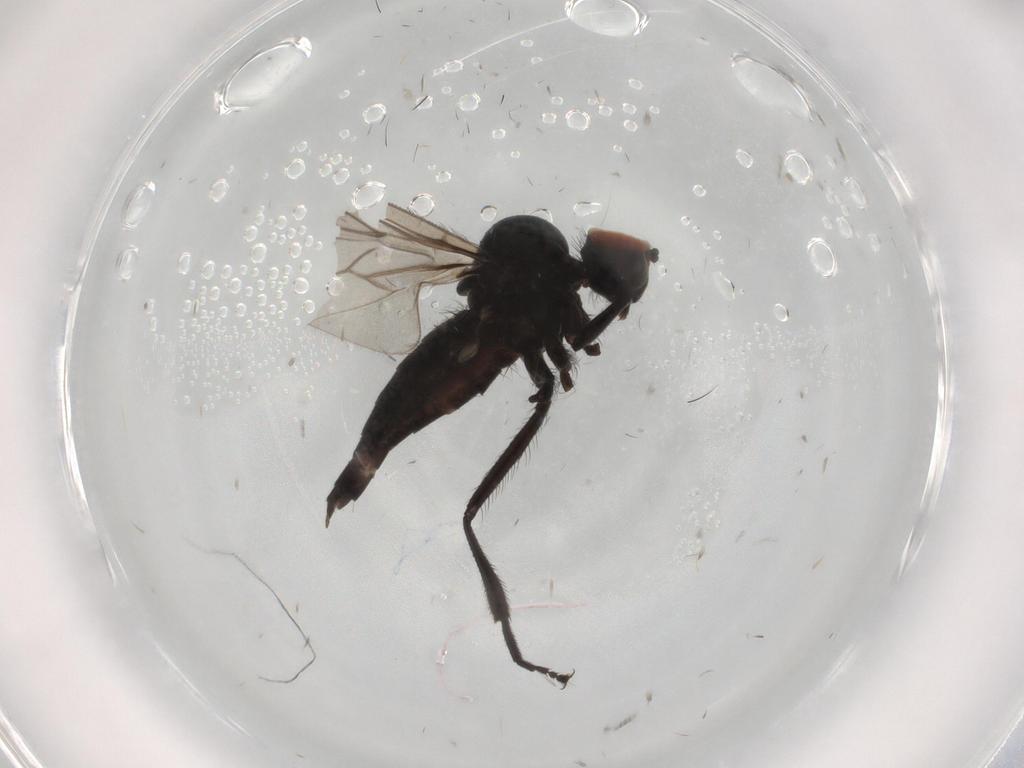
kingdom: Animalia
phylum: Arthropoda
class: Insecta
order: Diptera
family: Hybotidae
